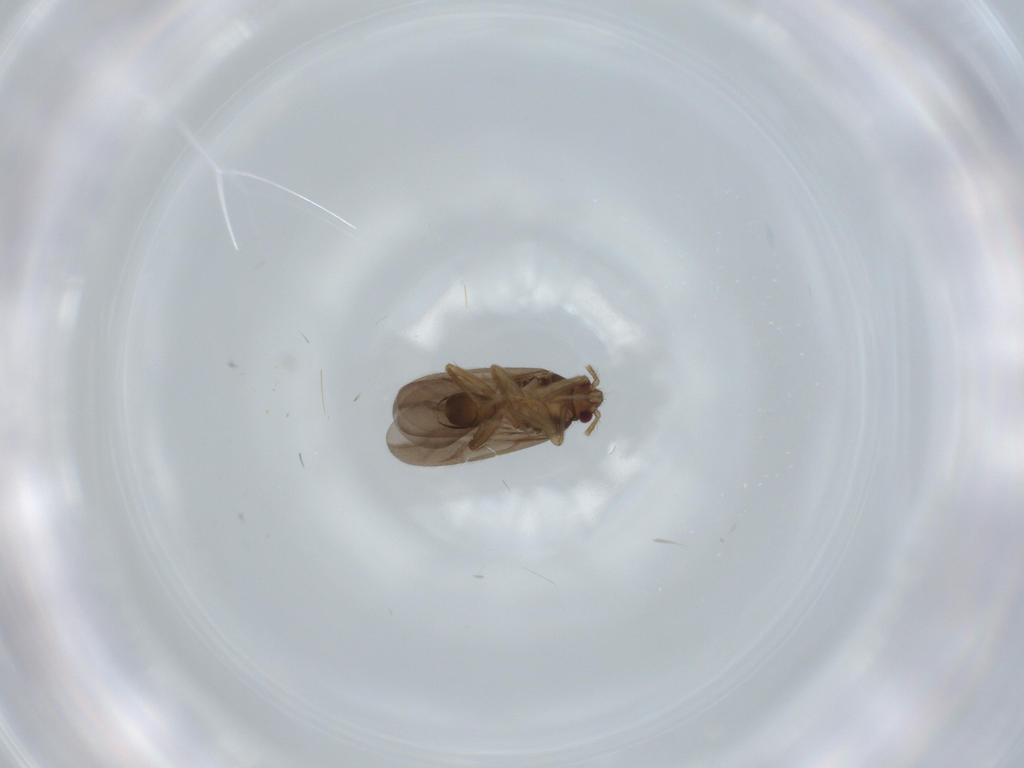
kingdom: Animalia
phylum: Arthropoda
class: Insecta
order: Hemiptera
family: Ceratocombidae
